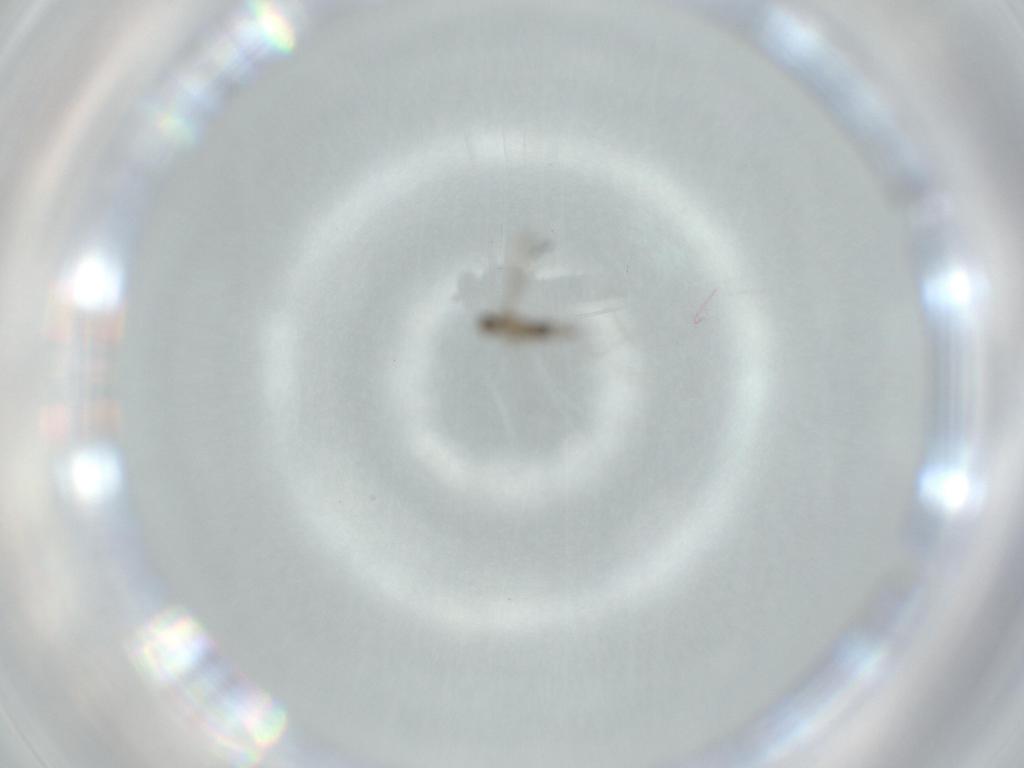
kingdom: Animalia
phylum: Arthropoda
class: Insecta
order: Diptera
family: Cecidomyiidae
